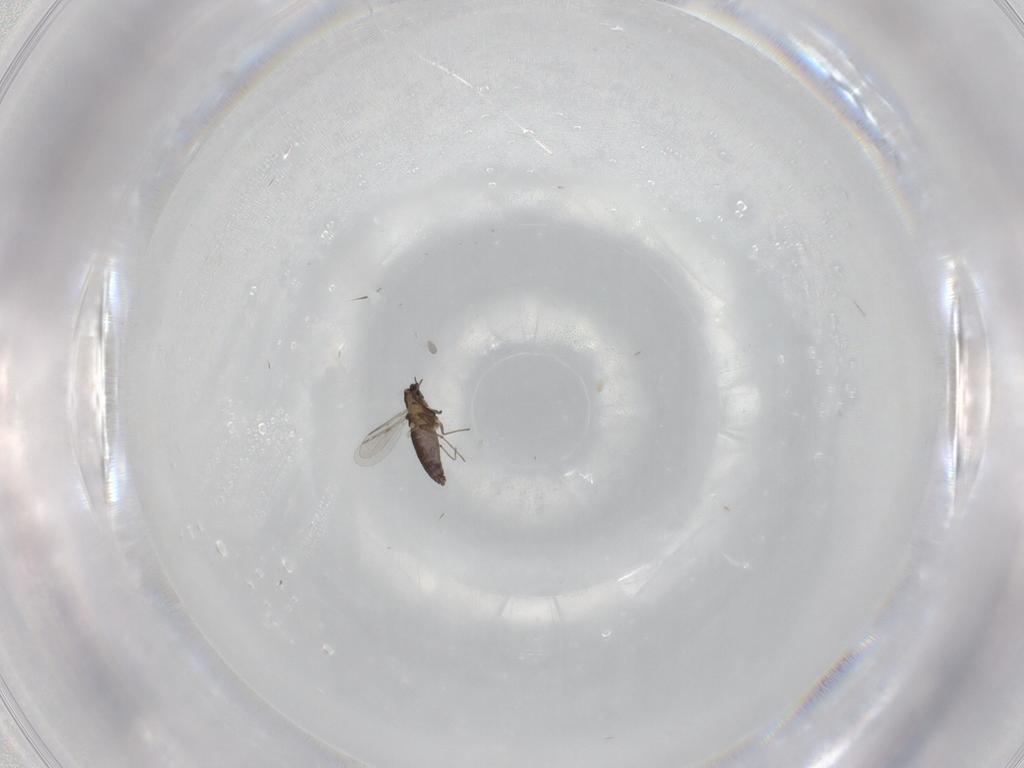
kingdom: Animalia
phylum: Arthropoda
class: Insecta
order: Diptera
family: Chironomidae
